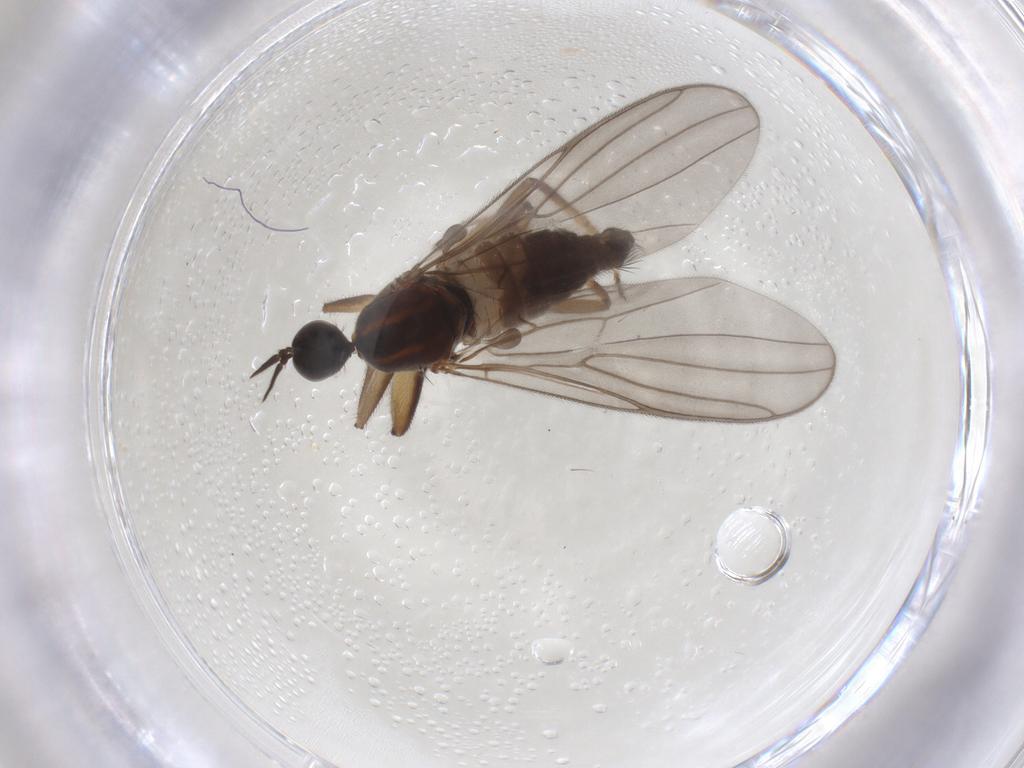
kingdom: Animalia
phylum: Arthropoda
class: Insecta
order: Diptera
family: Hybotidae
